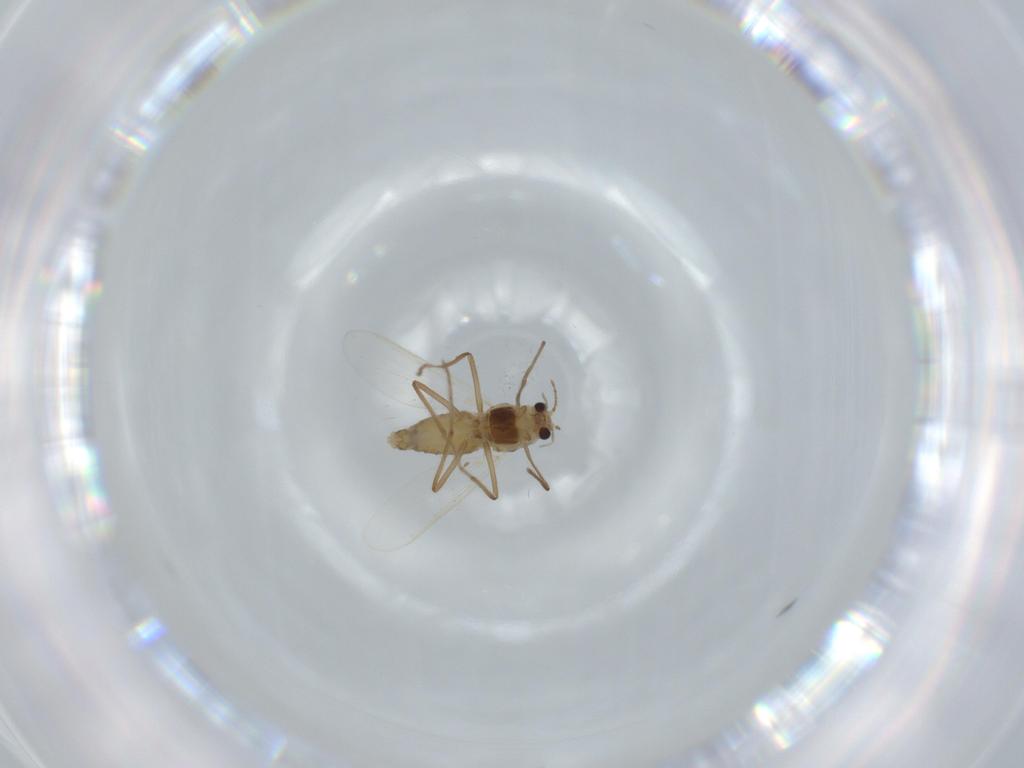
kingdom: Animalia
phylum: Arthropoda
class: Insecta
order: Diptera
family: Chironomidae
